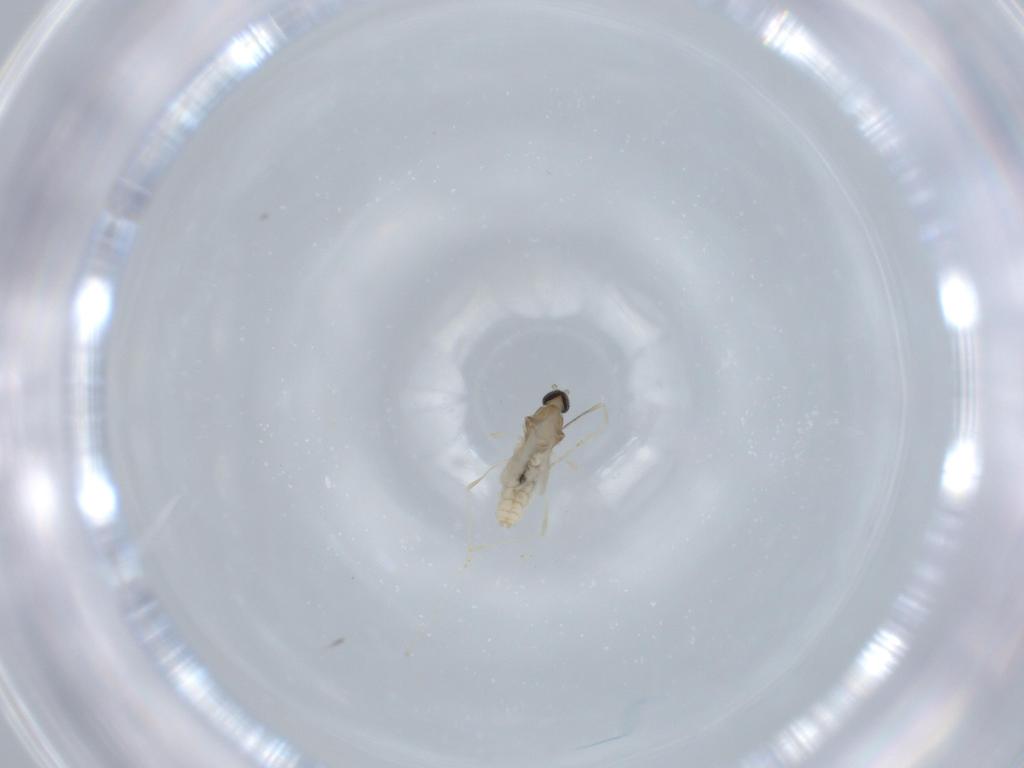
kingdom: Animalia
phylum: Arthropoda
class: Insecta
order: Diptera
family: Cecidomyiidae
